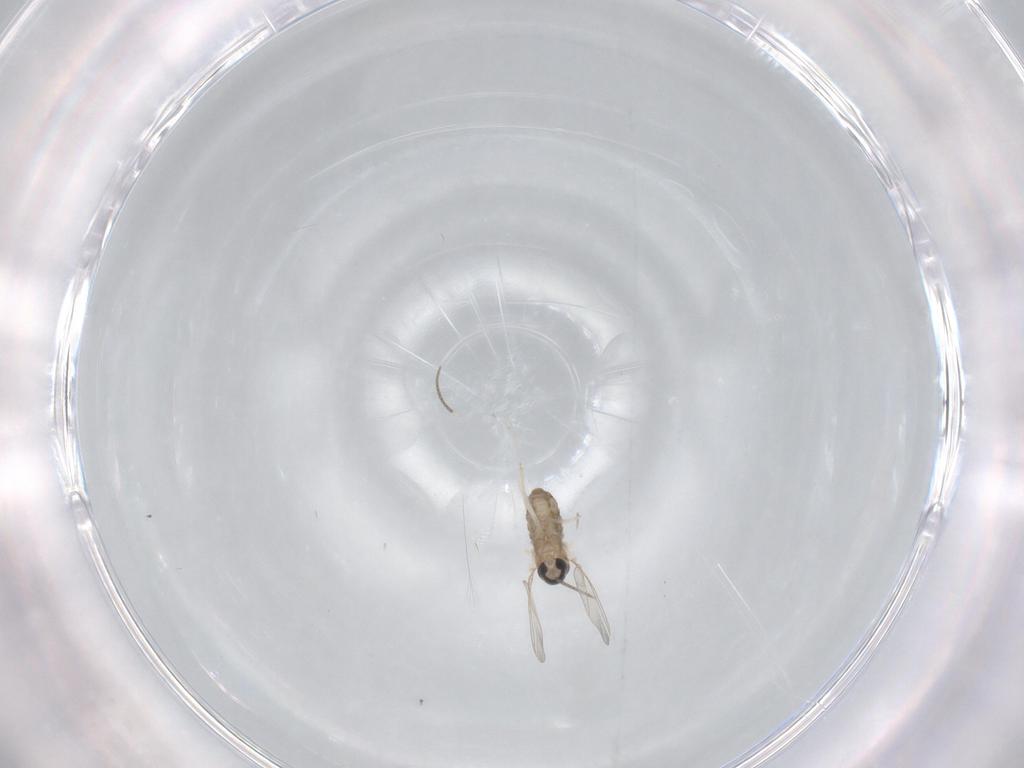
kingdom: Animalia
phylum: Arthropoda
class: Insecta
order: Diptera
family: Cecidomyiidae
